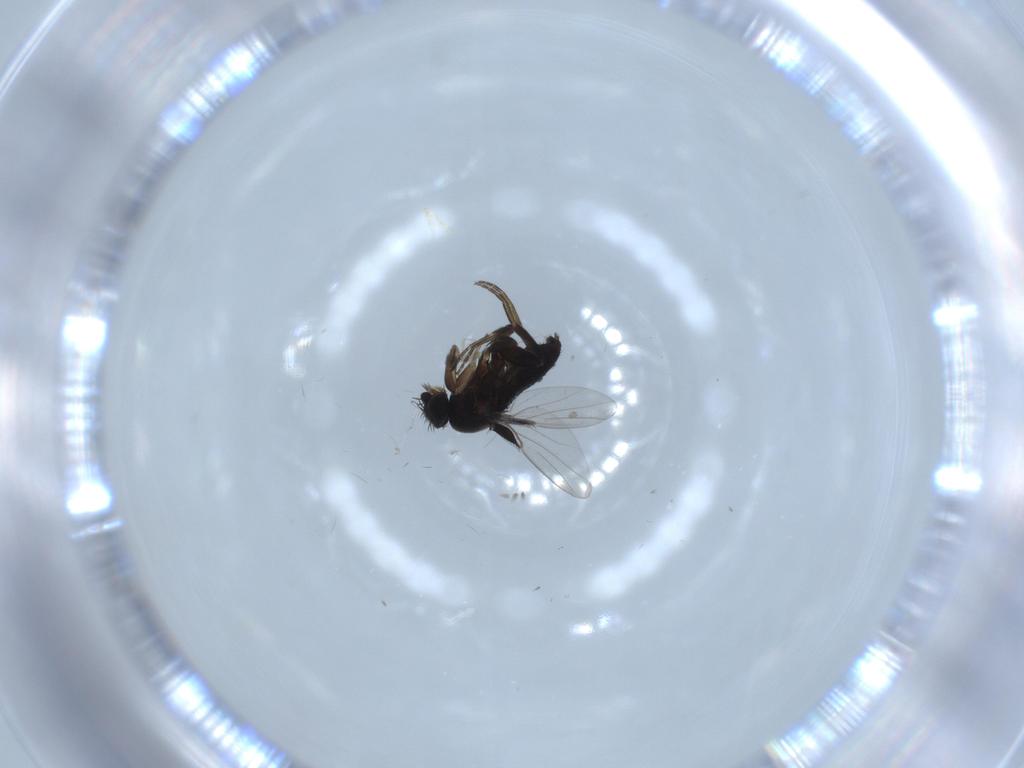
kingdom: Animalia
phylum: Arthropoda
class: Insecta
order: Diptera
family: Phoridae
